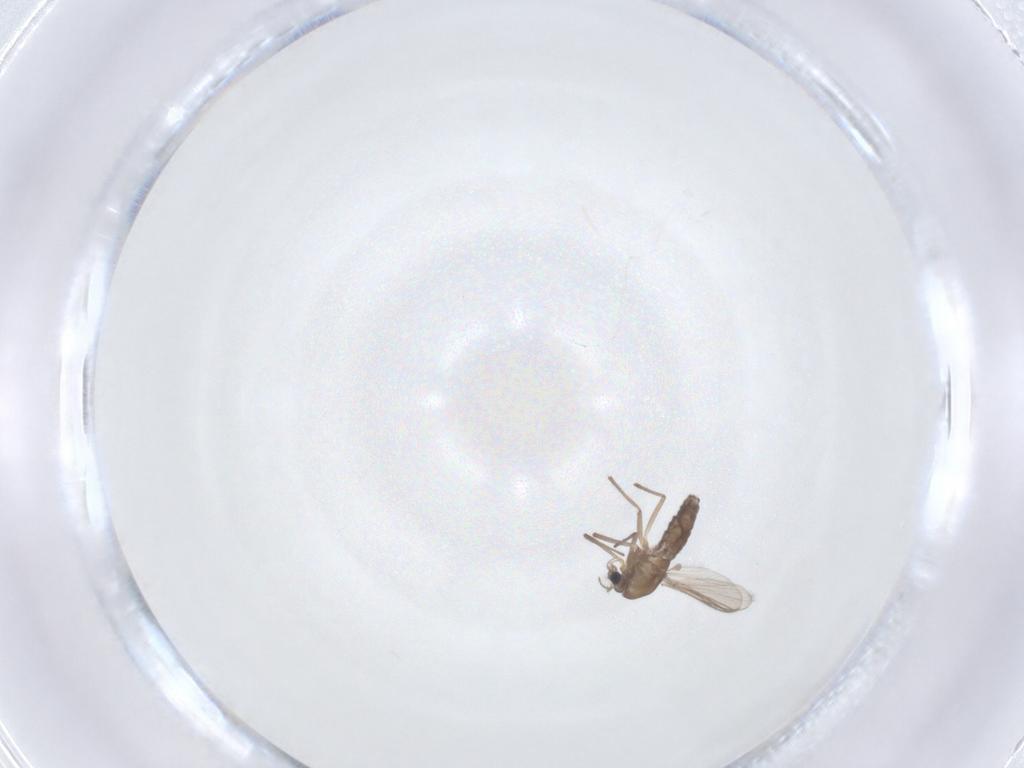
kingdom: Animalia
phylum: Arthropoda
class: Insecta
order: Diptera
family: Chironomidae
